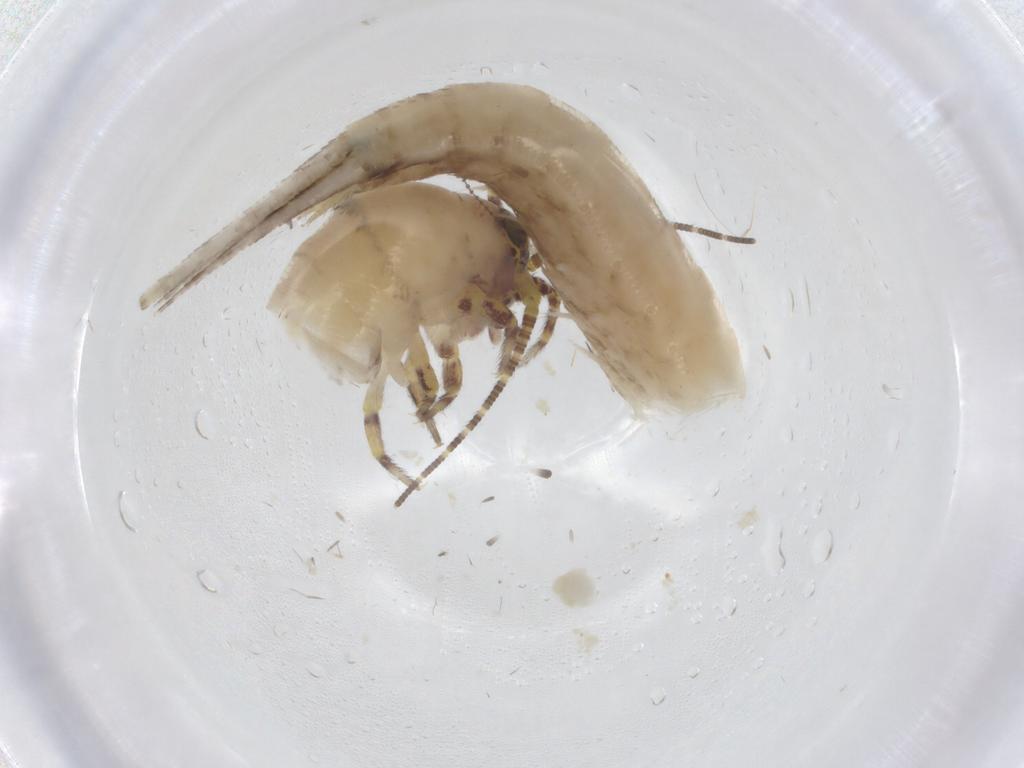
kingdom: Animalia
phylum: Arthropoda
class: Insecta
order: Archaeognatha
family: Machilidae
